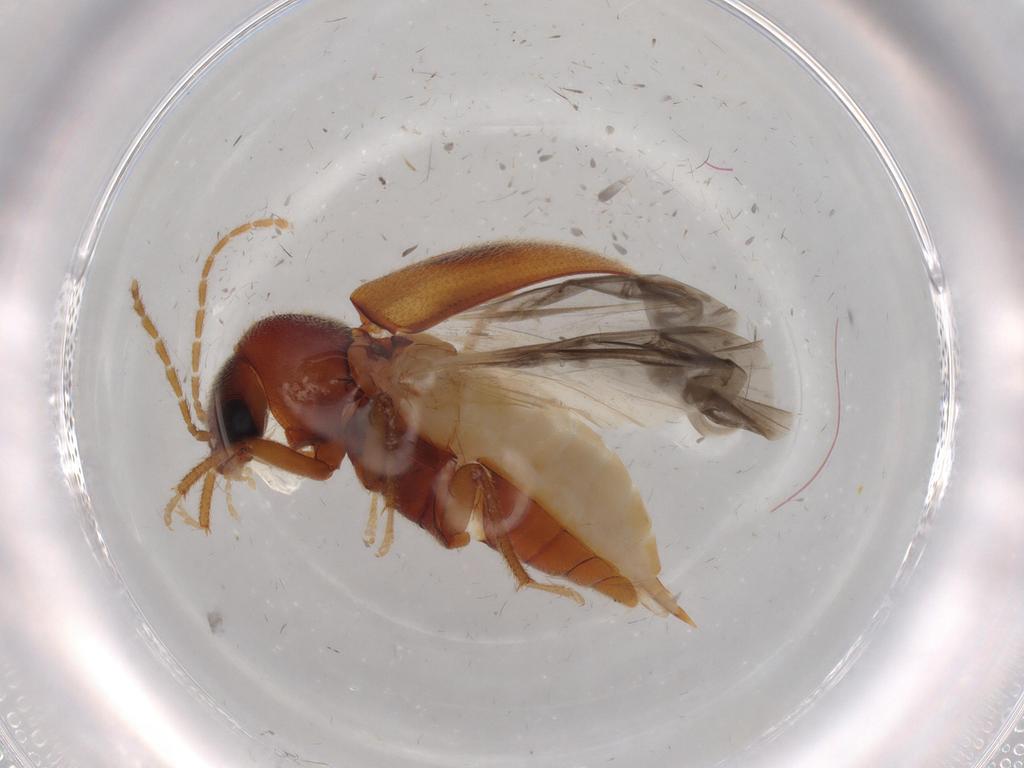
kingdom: Animalia
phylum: Arthropoda
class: Insecta
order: Coleoptera
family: Ptilodactylidae
